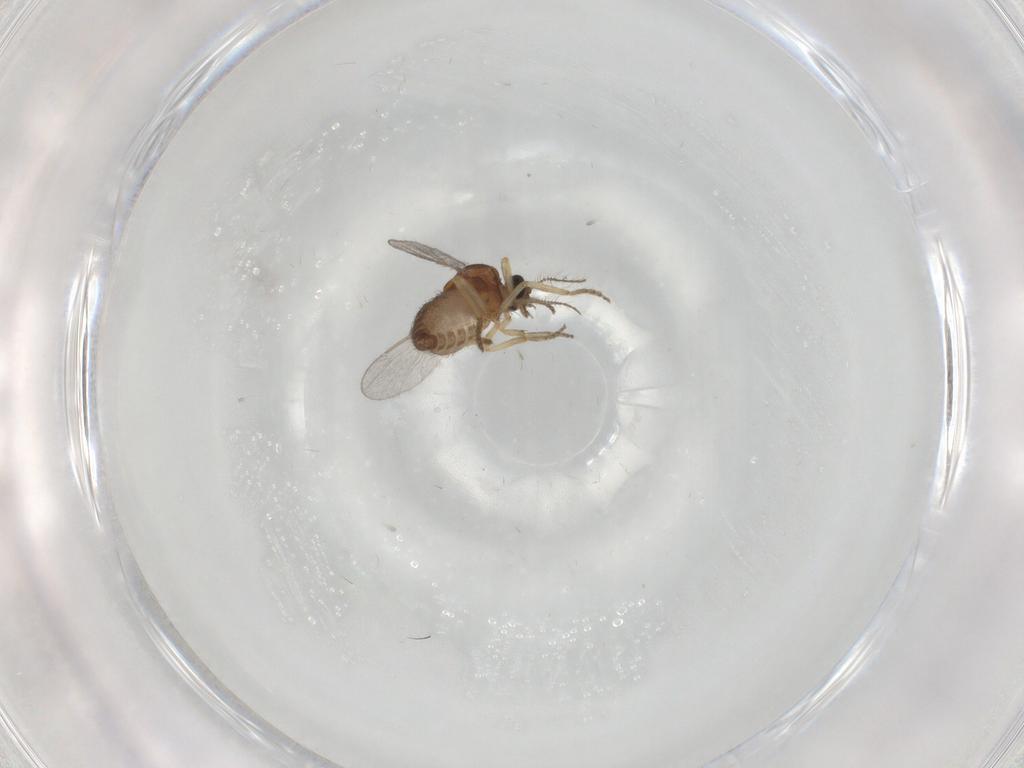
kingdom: Animalia
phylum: Arthropoda
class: Insecta
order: Diptera
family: Ceratopogonidae
